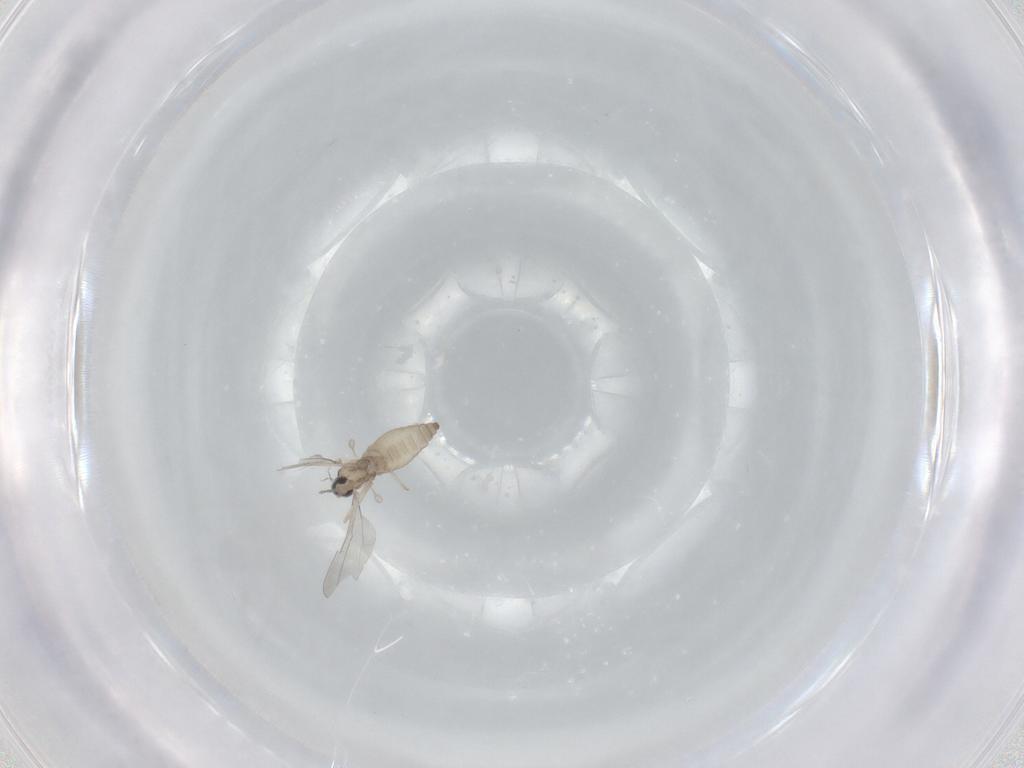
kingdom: Animalia
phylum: Arthropoda
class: Insecta
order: Diptera
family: Cecidomyiidae
